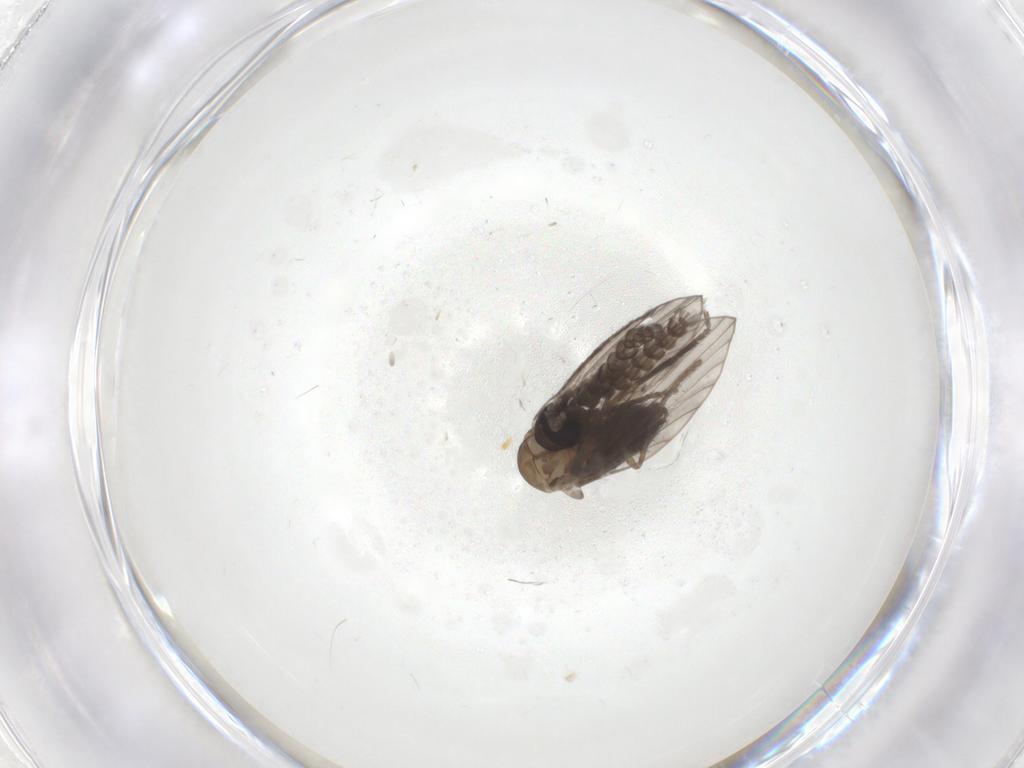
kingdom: Animalia
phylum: Arthropoda
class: Insecta
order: Diptera
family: Cecidomyiidae
